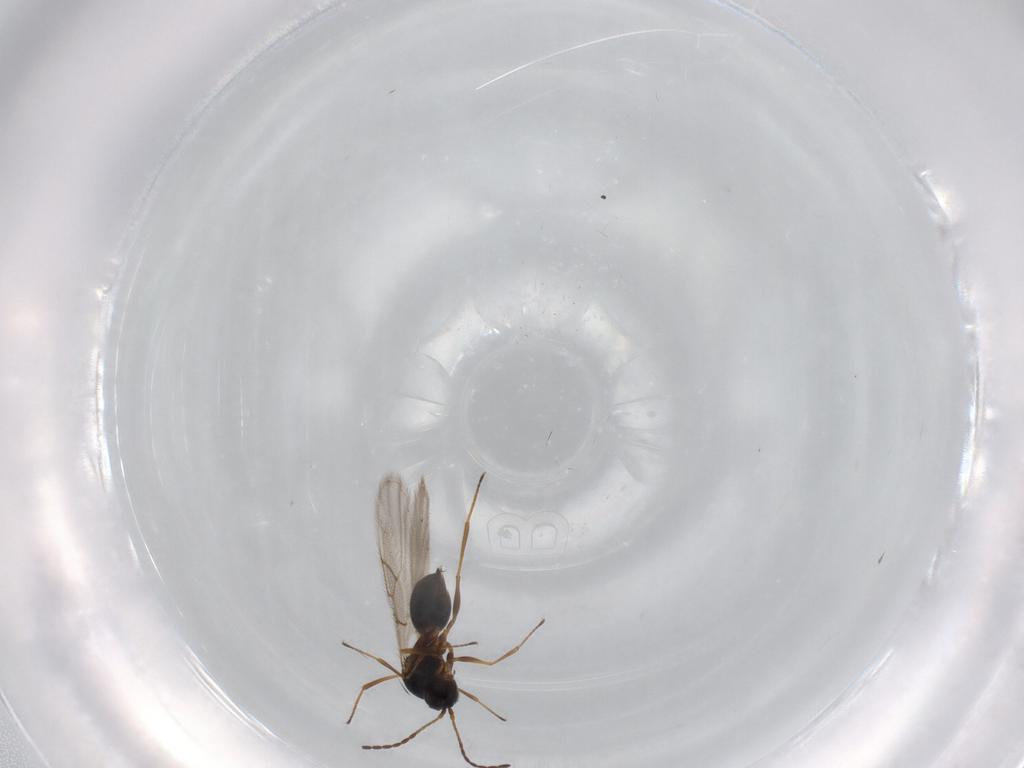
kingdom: Animalia
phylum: Arthropoda
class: Insecta
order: Hymenoptera
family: Figitidae
